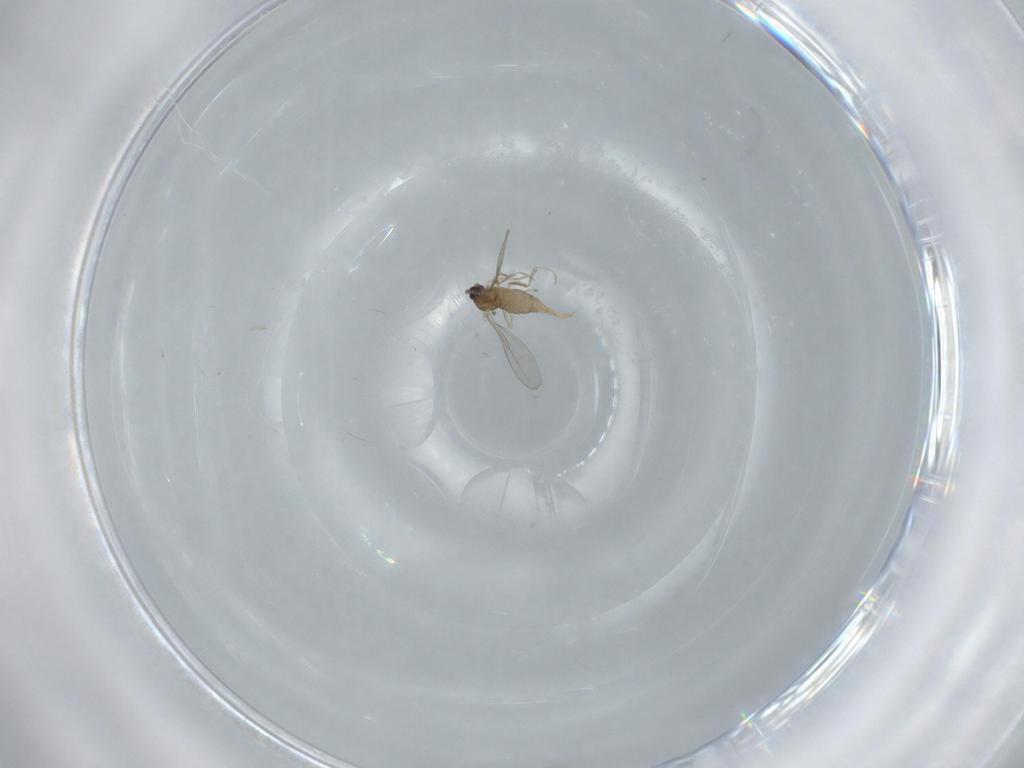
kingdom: Animalia
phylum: Arthropoda
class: Insecta
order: Diptera
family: Cecidomyiidae
